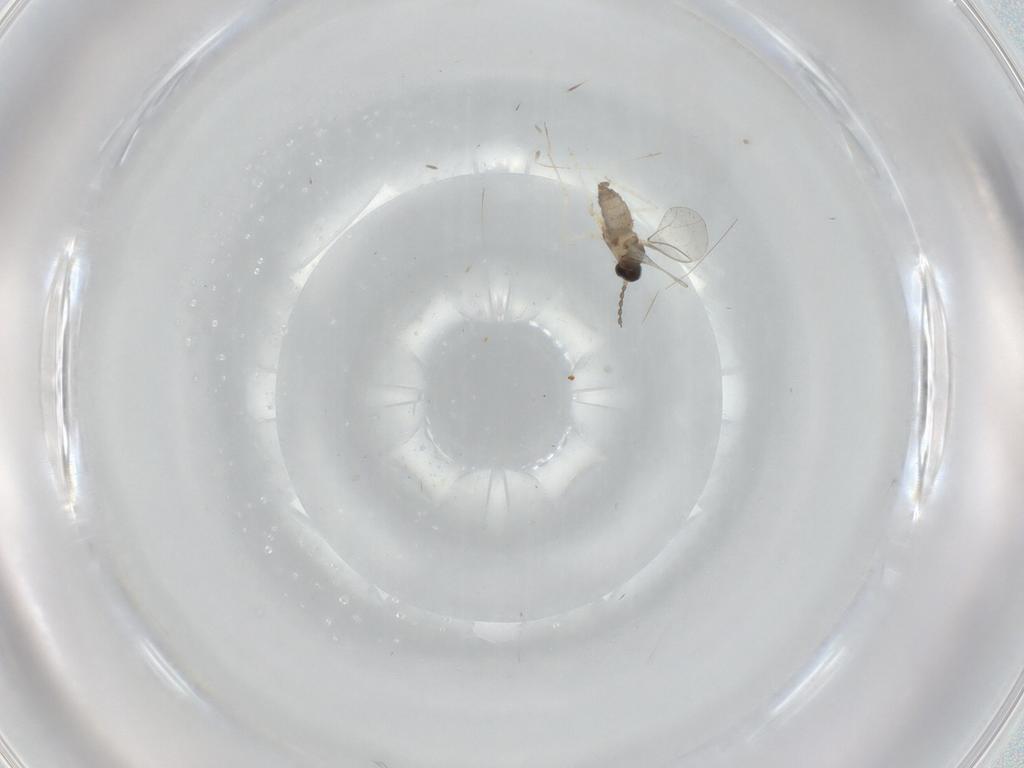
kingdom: Animalia
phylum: Arthropoda
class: Insecta
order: Diptera
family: Cecidomyiidae
